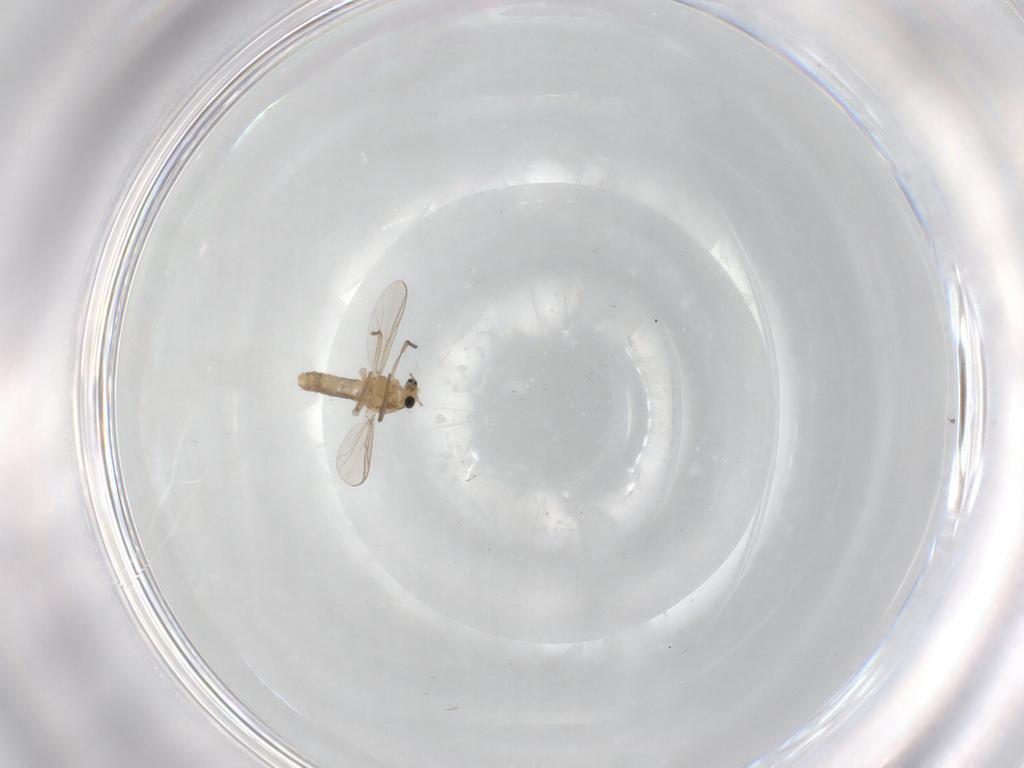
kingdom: Animalia
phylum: Arthropoda
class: Insecta
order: Diptera
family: Chironomidae
